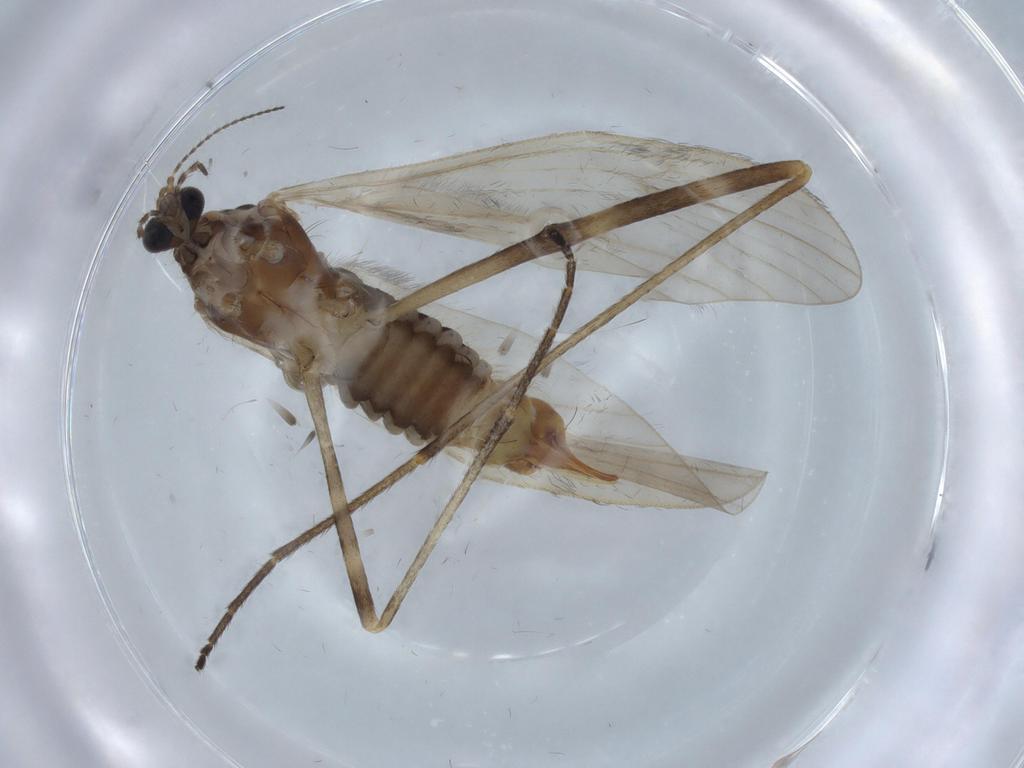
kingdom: Animalia
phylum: Arthropoda
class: Insecta
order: Diptera
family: Limoniidae
